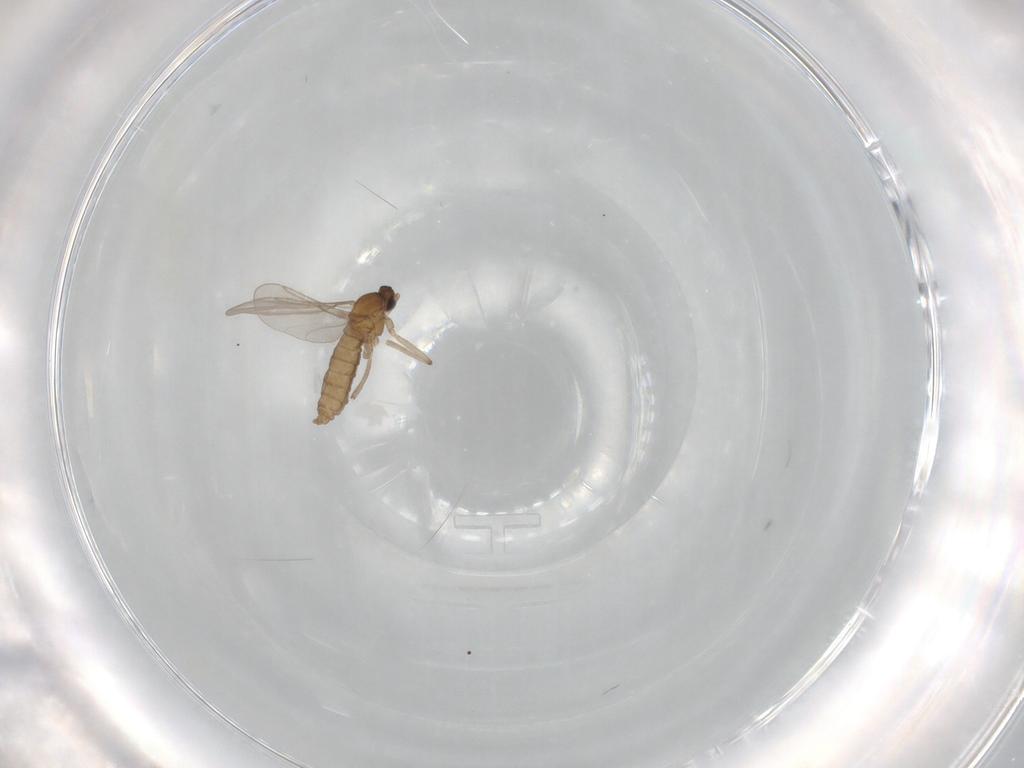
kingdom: Animalia
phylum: Arthropoda
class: Insecta
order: Diptera
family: Cecidomyiidae
